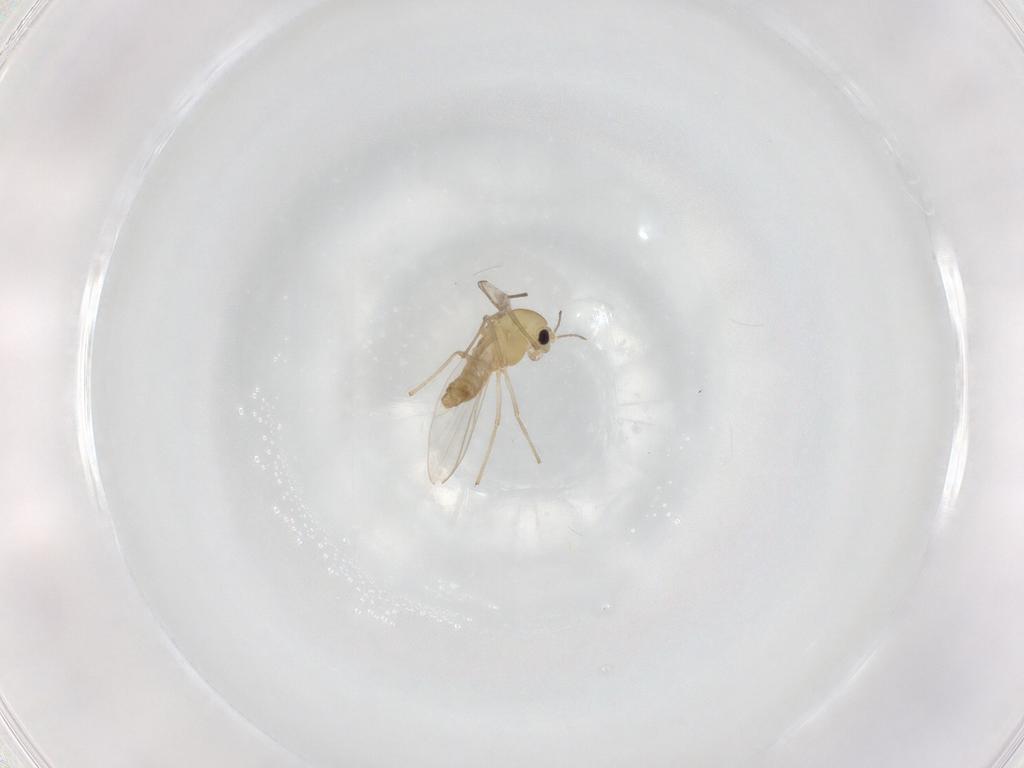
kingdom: Animalia
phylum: Arthropoda
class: Insecta
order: Diptera
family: Chironomidae
